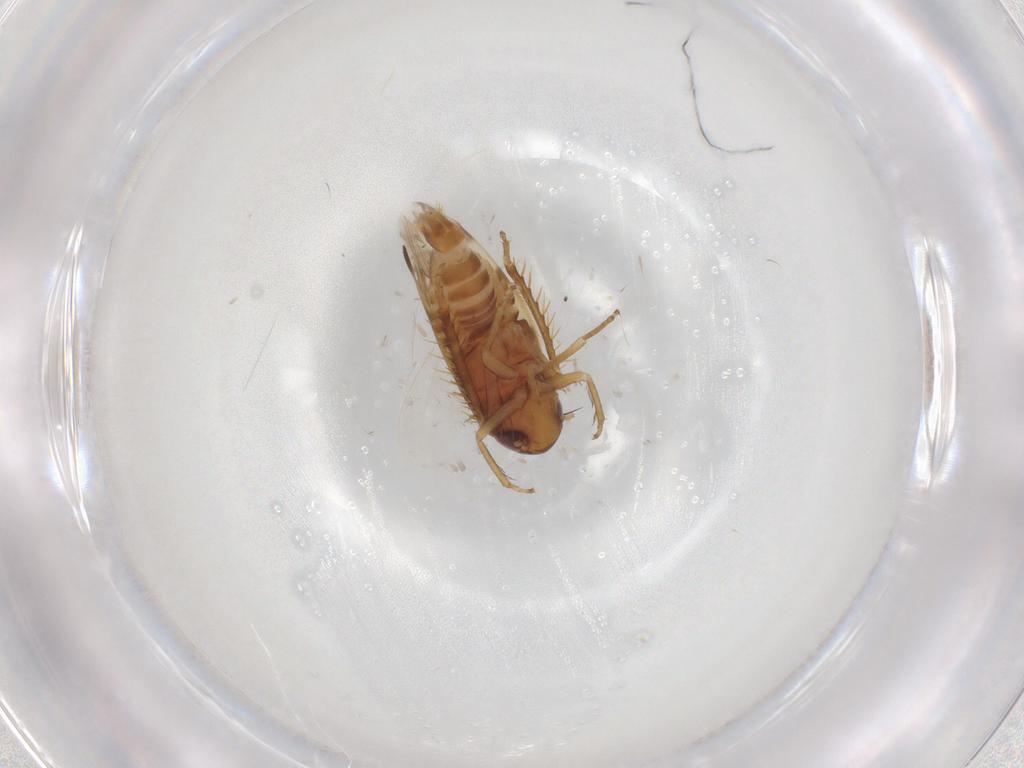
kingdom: Animalia
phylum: Arthropoda
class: Insecta
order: Hemiptera
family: Cicadellidae
